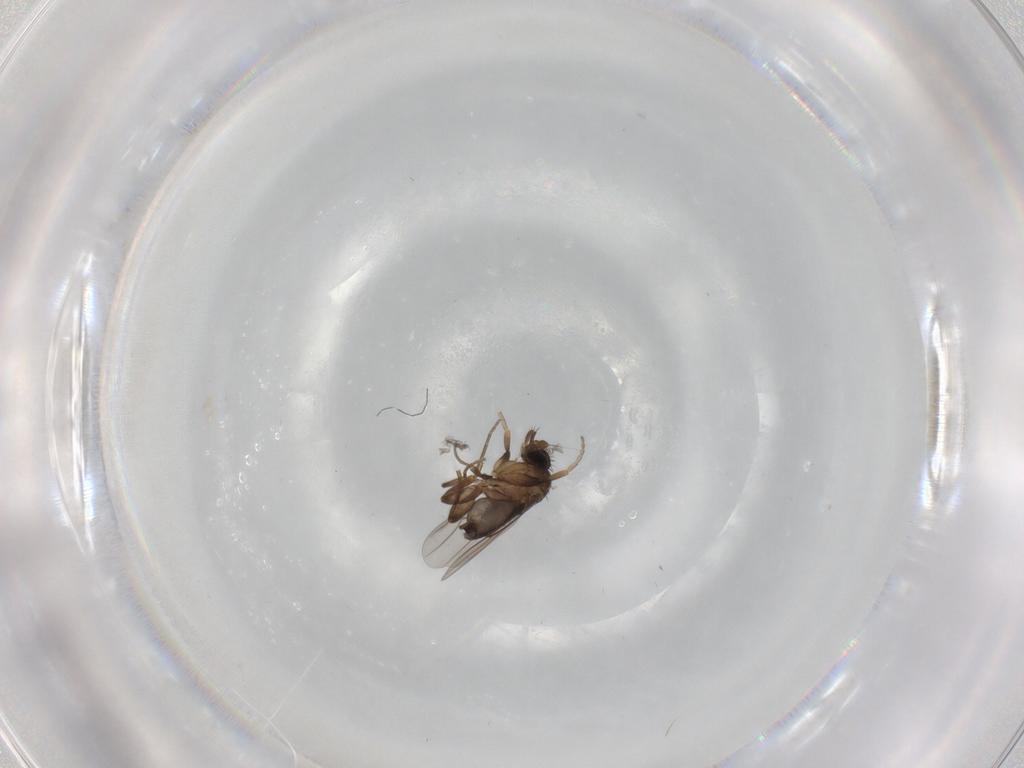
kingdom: Animalia
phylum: Arthropoda
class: Insecta
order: Diptera
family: Phoridae
